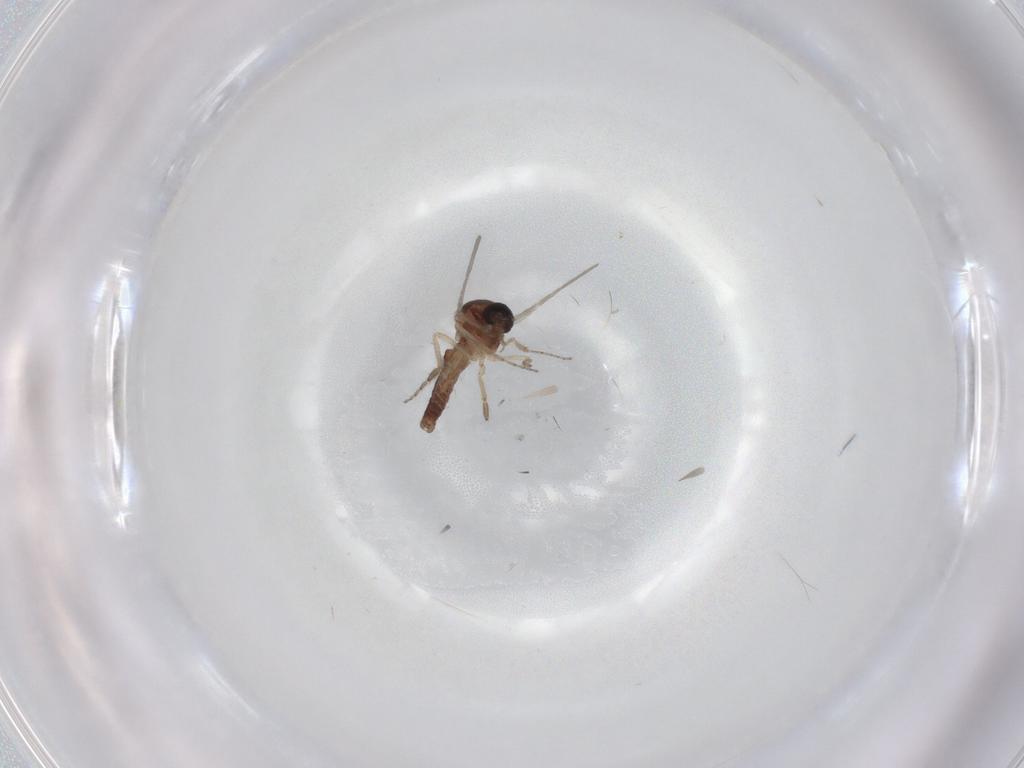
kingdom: Animalia
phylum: Arthropoda
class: Insecta
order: Diptera
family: Ceratopogonidae
